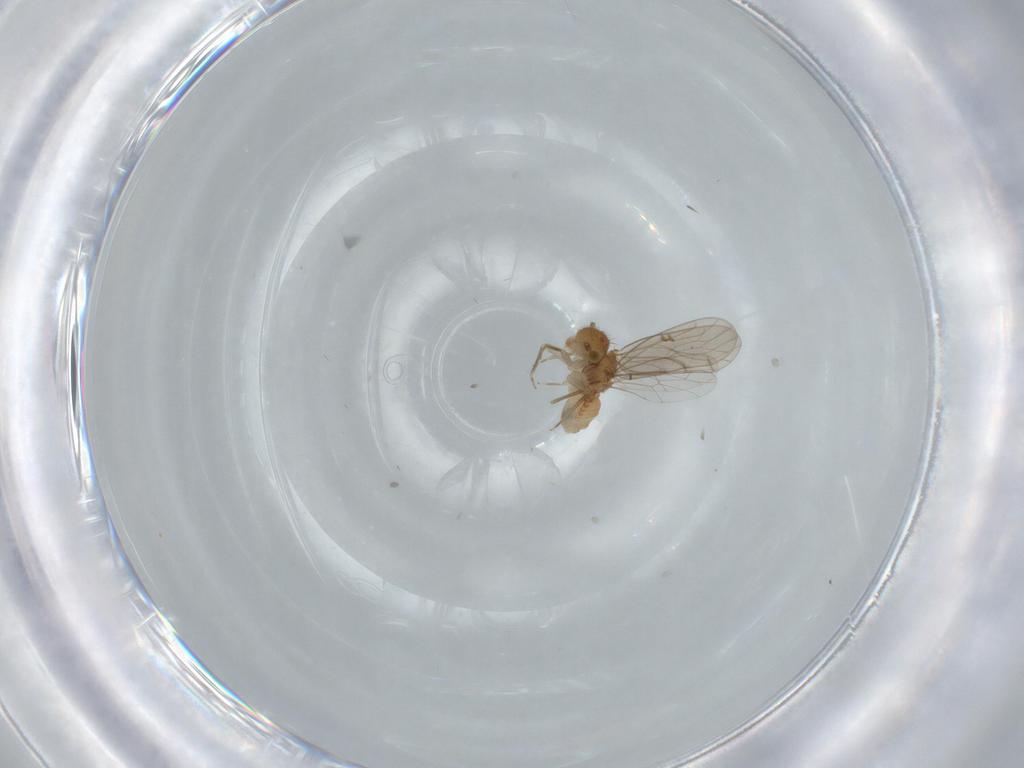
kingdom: Animalia
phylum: Arthropoda
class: Insecta
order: Psocodea
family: Ectopsocidae
